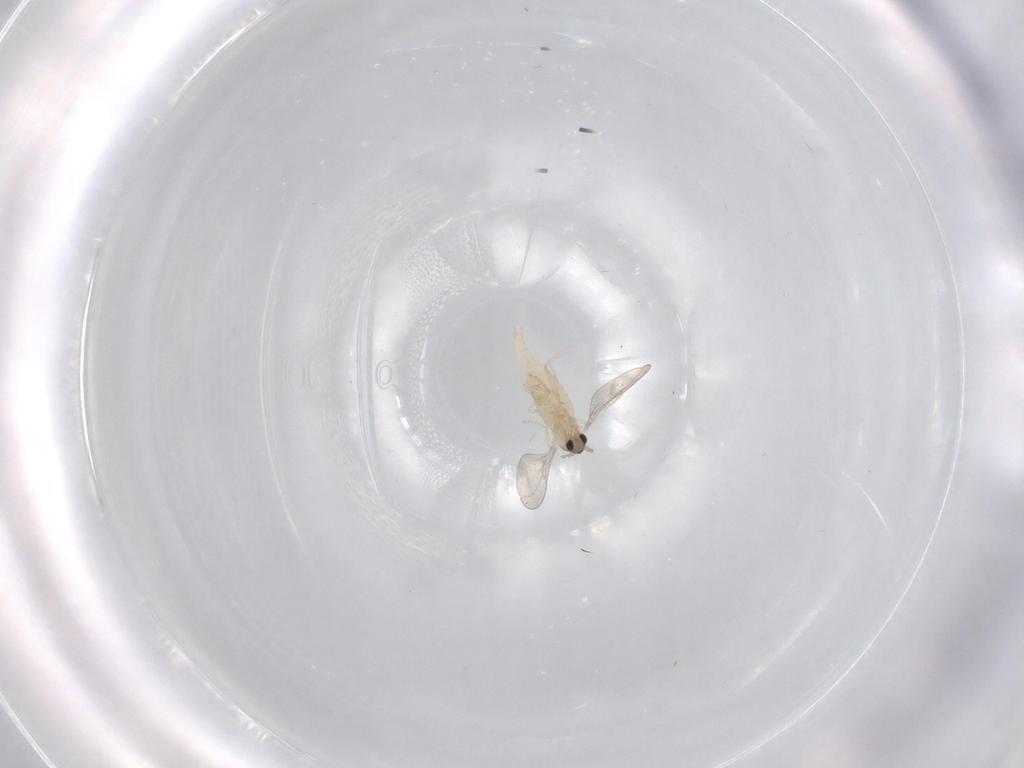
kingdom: Animalia
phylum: Arthropoda
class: Insecta
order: Diptera
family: Cecidomyiidae
